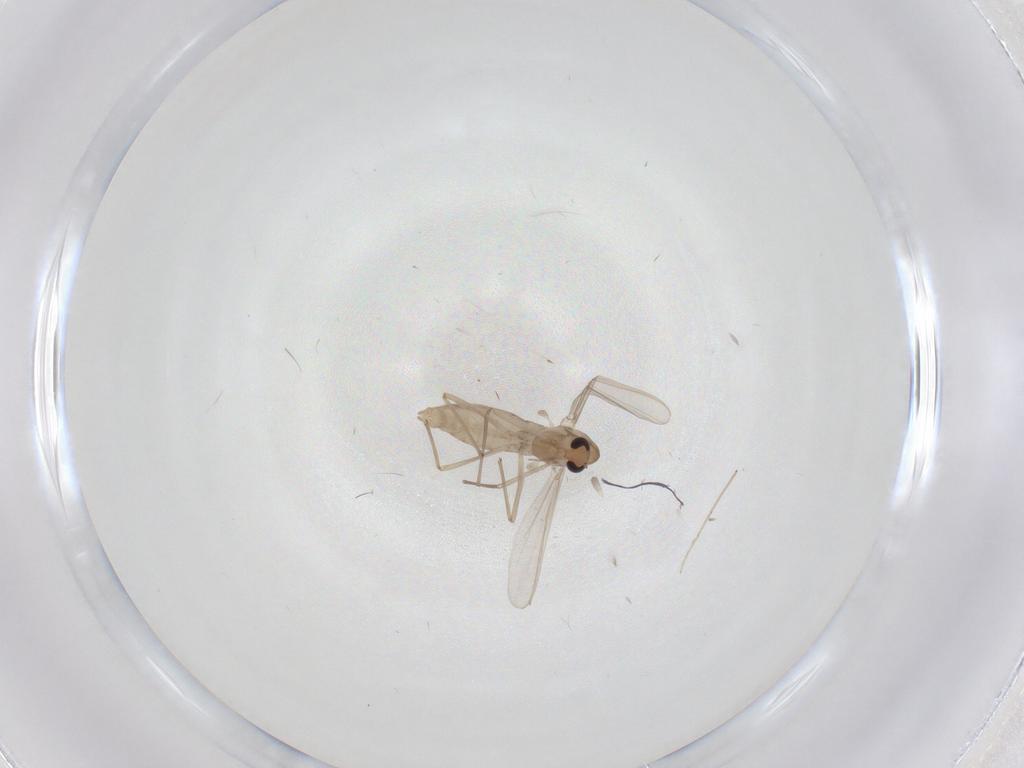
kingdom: Animalia
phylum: Arthropoda
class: Insecta
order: Diptera
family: Chironomidae
